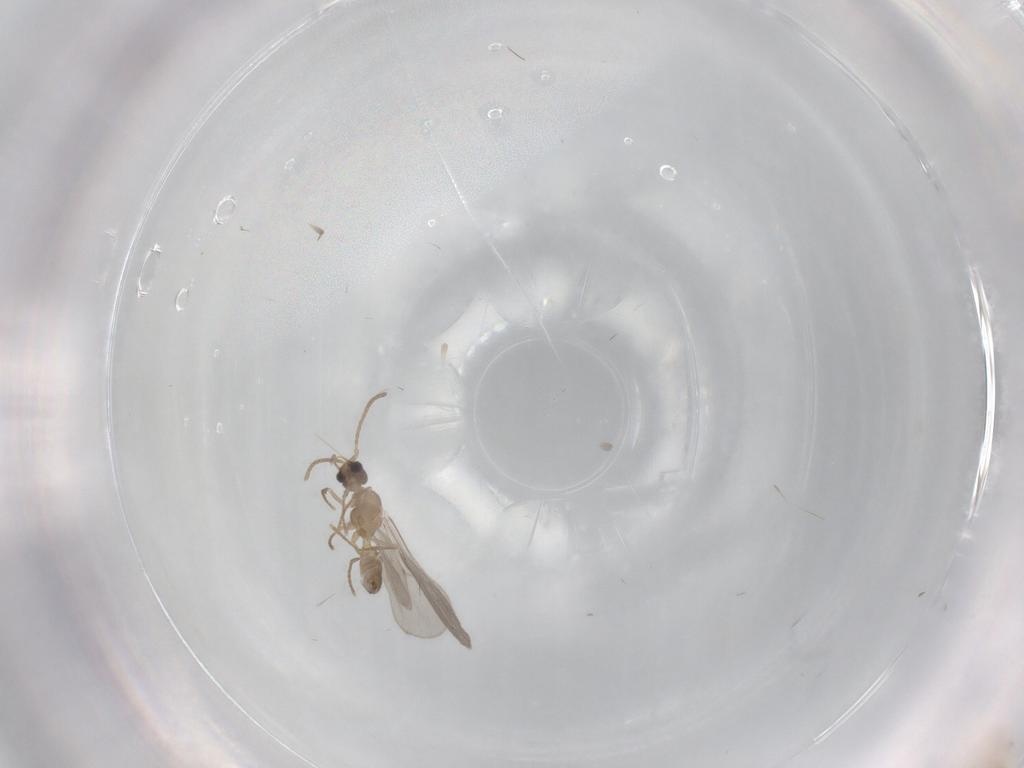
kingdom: Animalia
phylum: Arthropoda
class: Insecta
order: Hymenoptera
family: Formicidae
